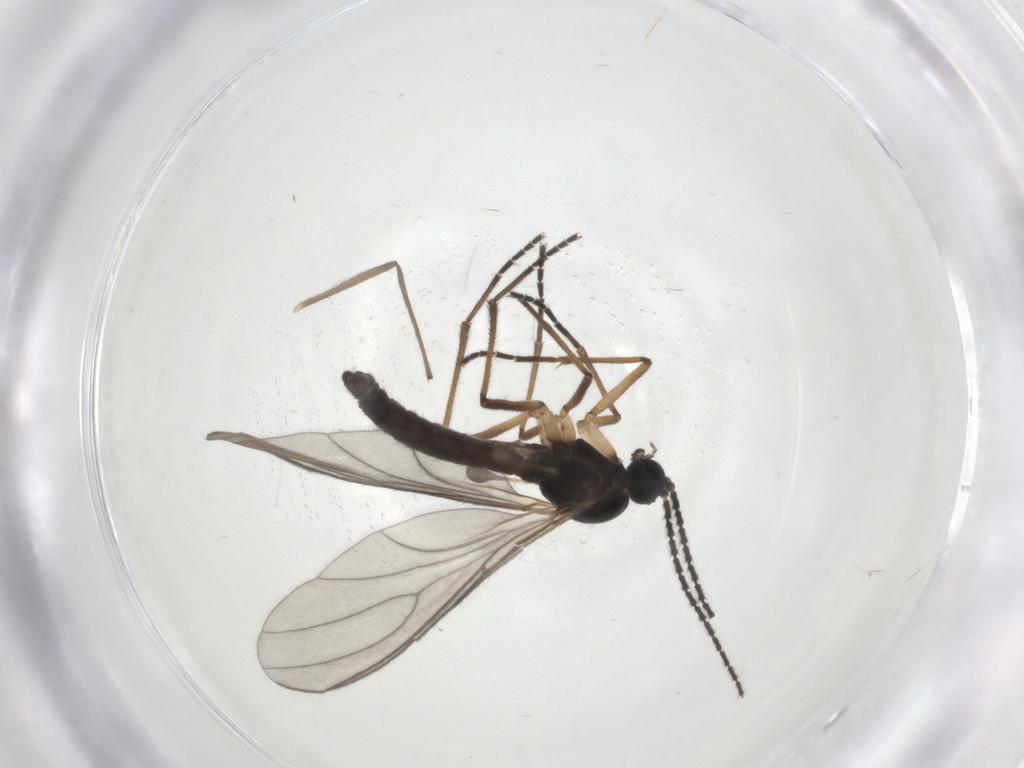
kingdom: Animalia
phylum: Arthropoda
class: Insecta
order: Diptera
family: Sciaridae
